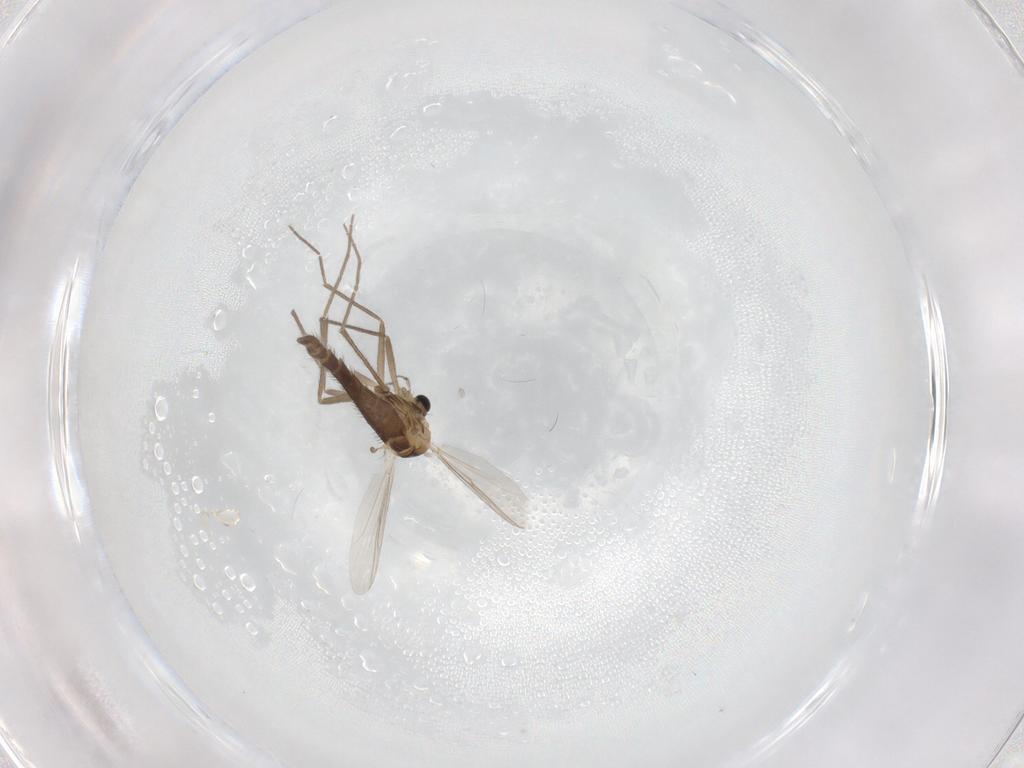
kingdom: Animalia
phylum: Arthropoda
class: Insecta
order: Diptera
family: Chironomidae
